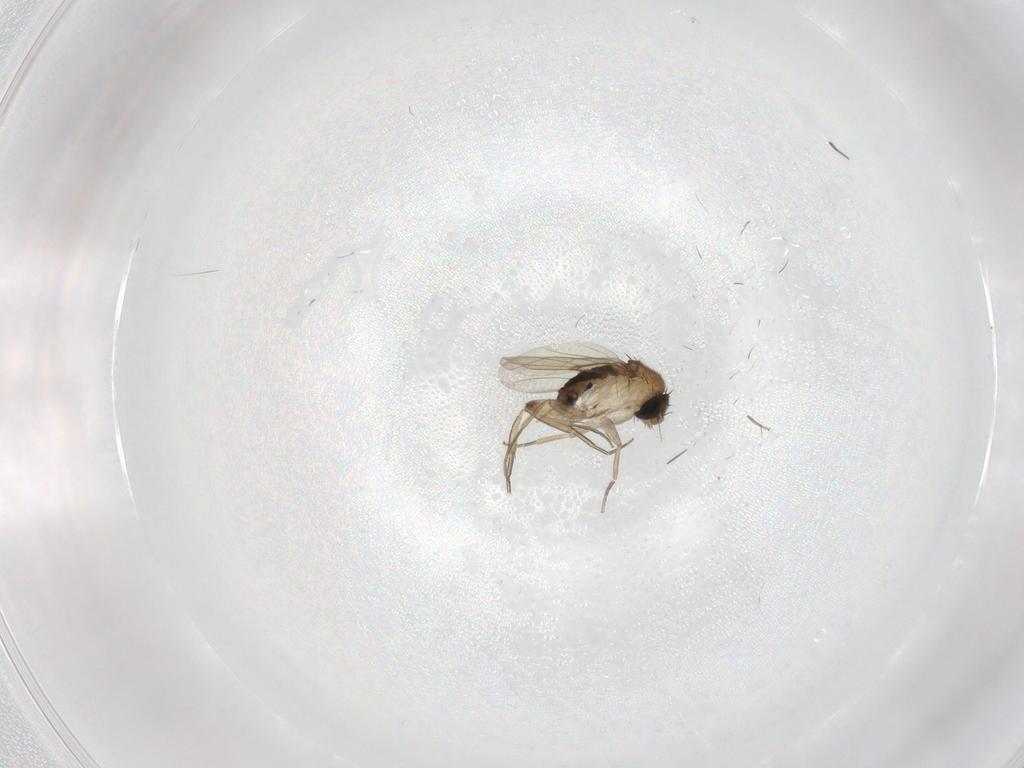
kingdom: Animalia
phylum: Arthropoda
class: Insecta
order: Diptera
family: Phoridae
